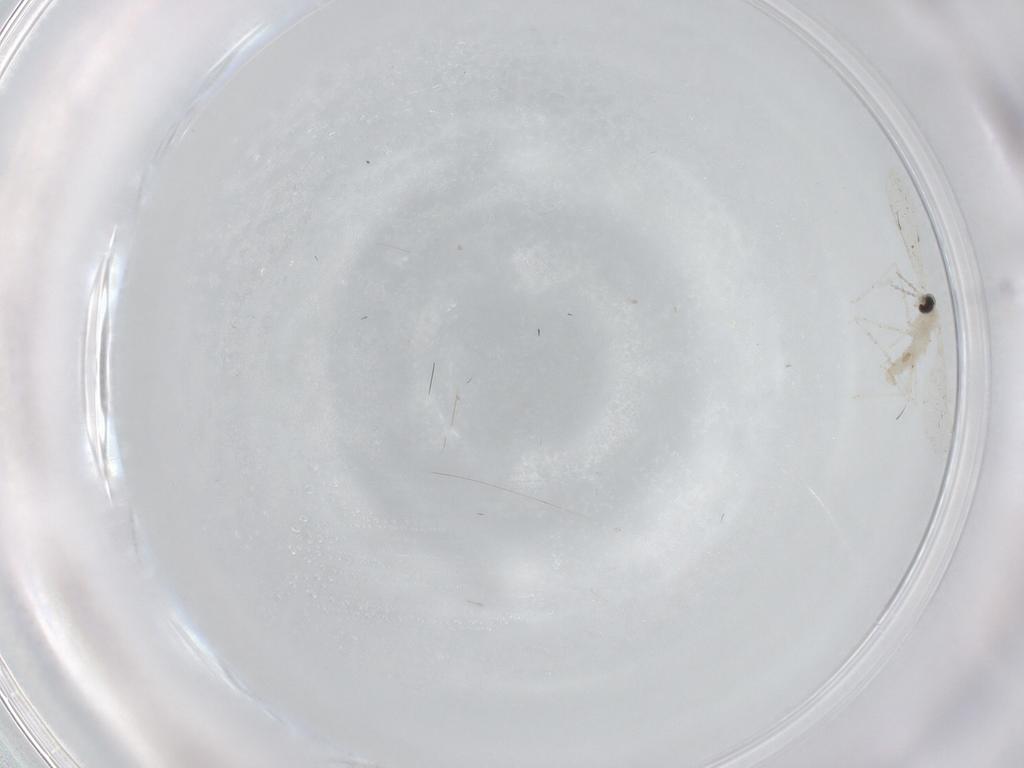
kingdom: Animalia
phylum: Arthropoda
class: Insecta
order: Diptera
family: Cecidomyiidae
